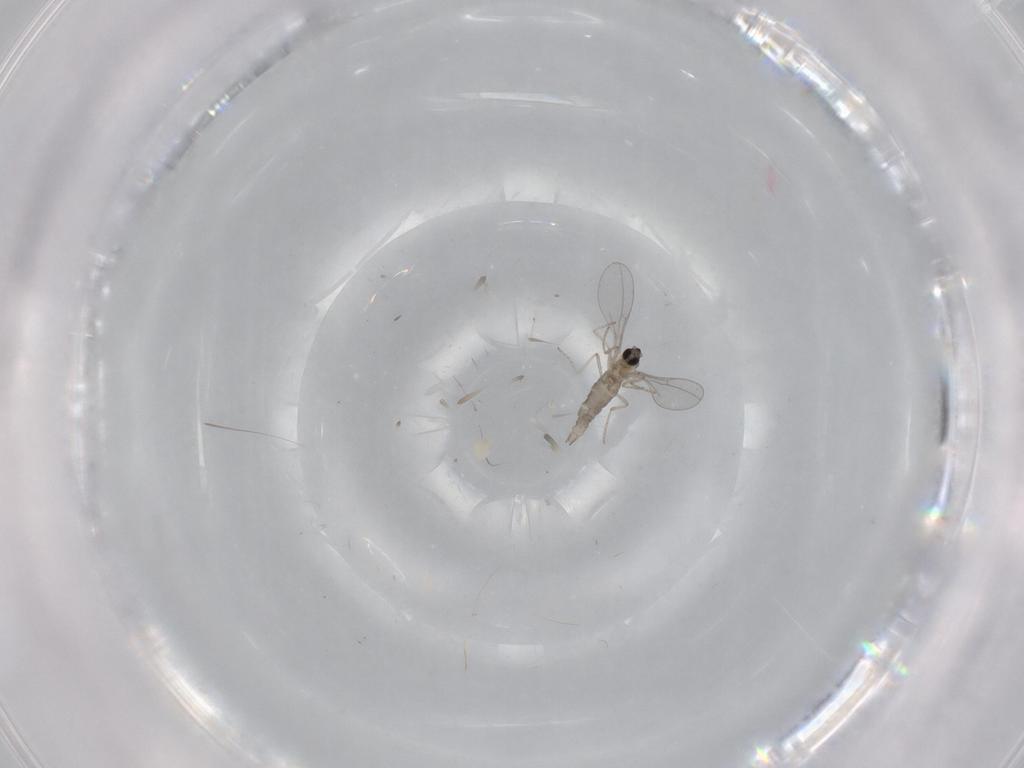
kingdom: Animalia
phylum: Arthropoda
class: Insecta
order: Diptera
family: Cecidomyiidae
